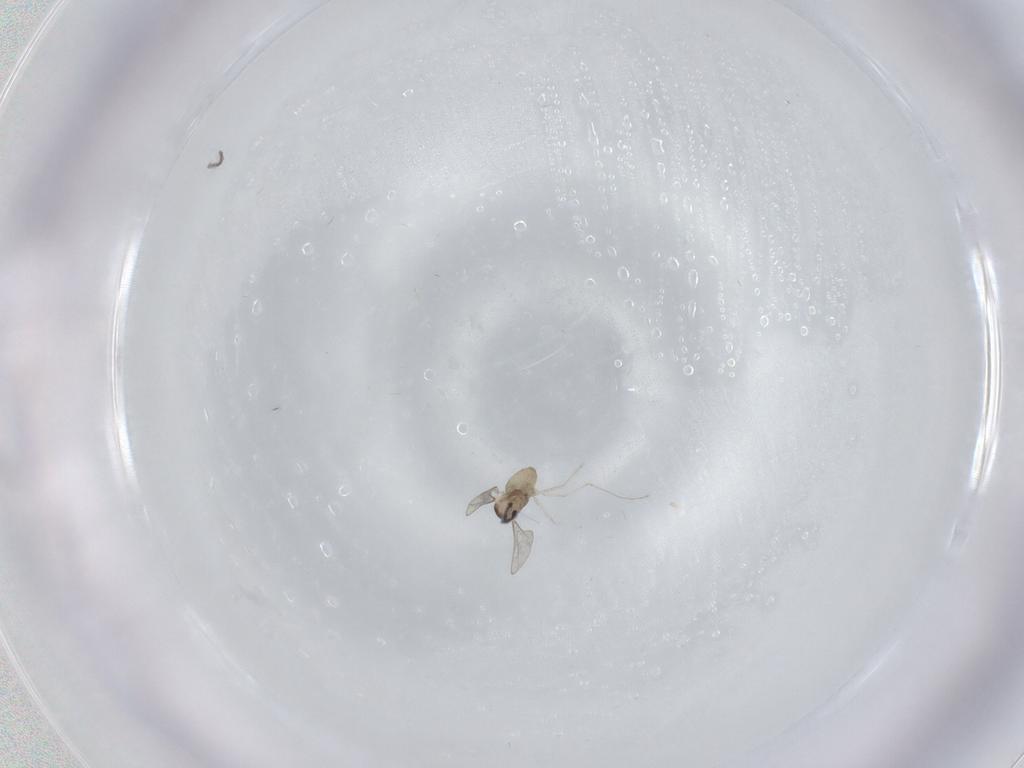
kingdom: Animalia
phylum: Arthropoda
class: Insecta
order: Diptera
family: Cecidomyiidae
